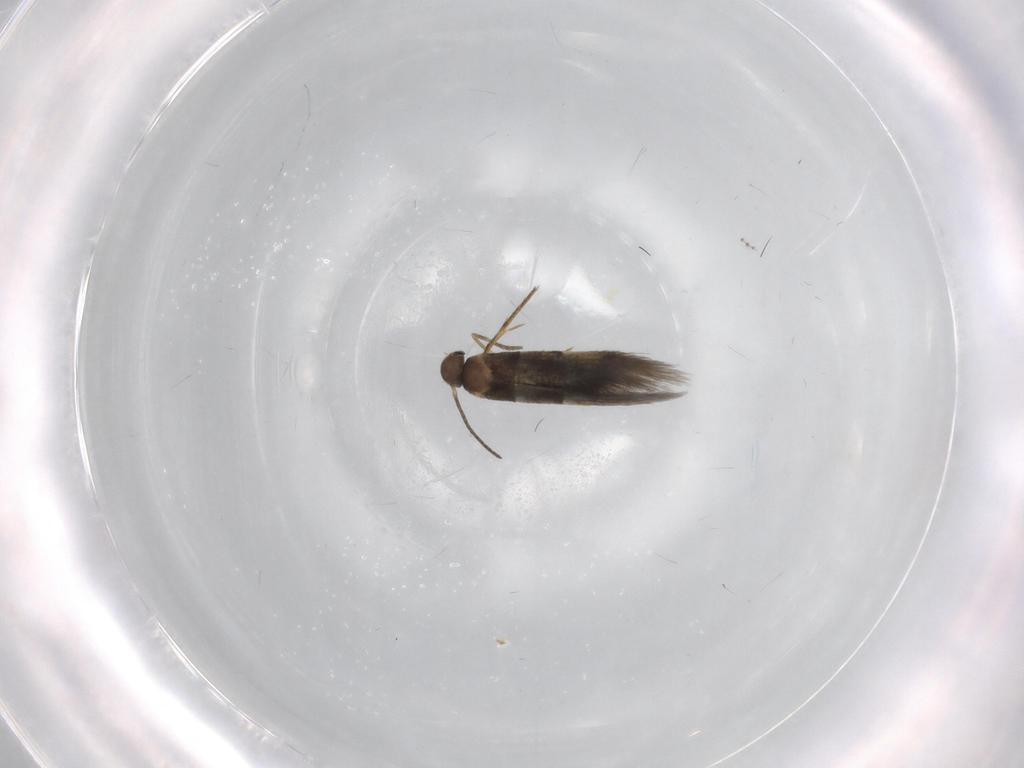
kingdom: Animalia
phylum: Arthropoda
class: Insecta
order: Lepidoptera
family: Heliozelidae
